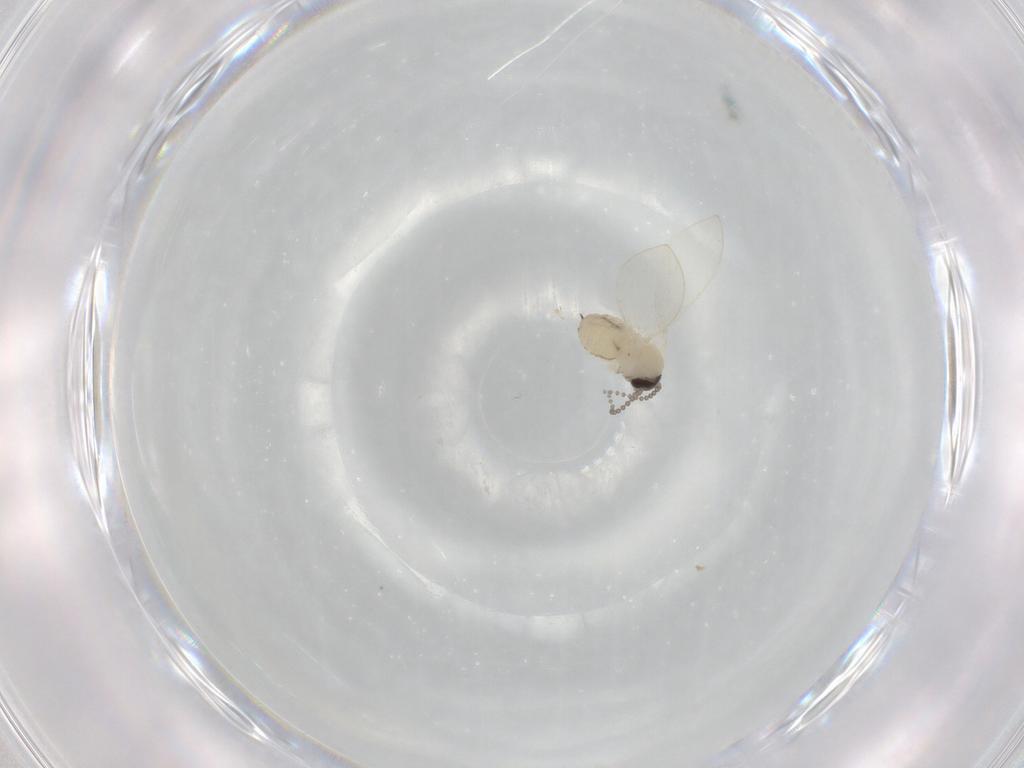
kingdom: Animalia
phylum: Arthropoda
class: Insecta
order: Diptera
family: Psychodidae
